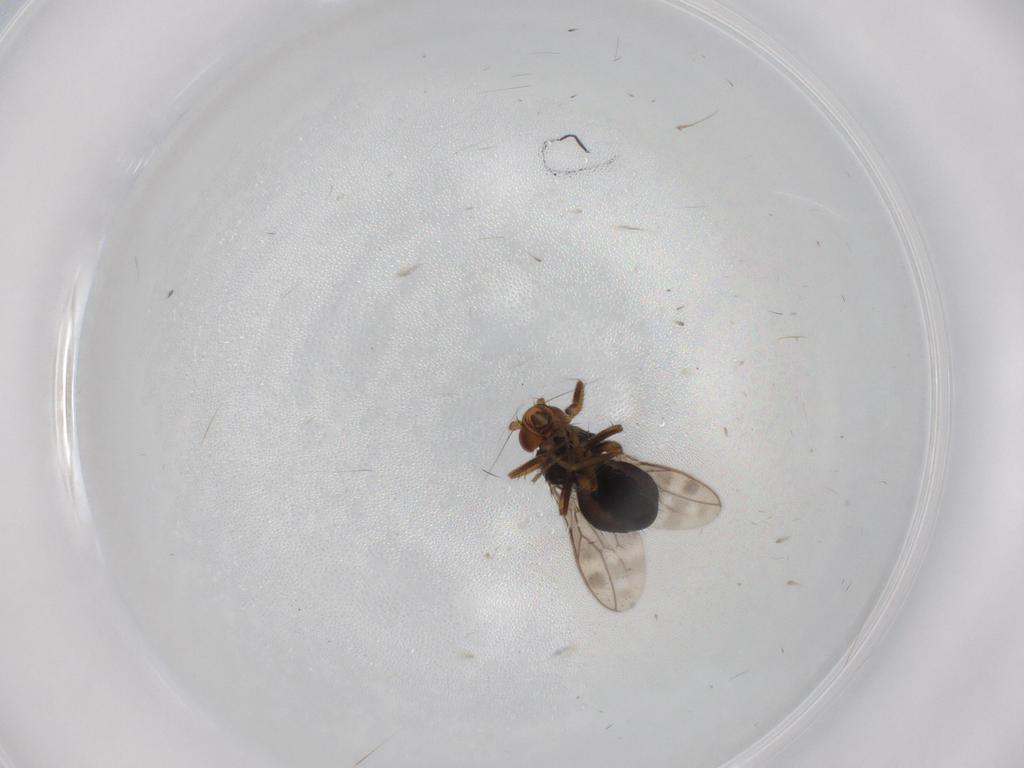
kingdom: Animalia
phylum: Arthropoda
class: Insecta
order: Diptera
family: Sphaeroceridae
